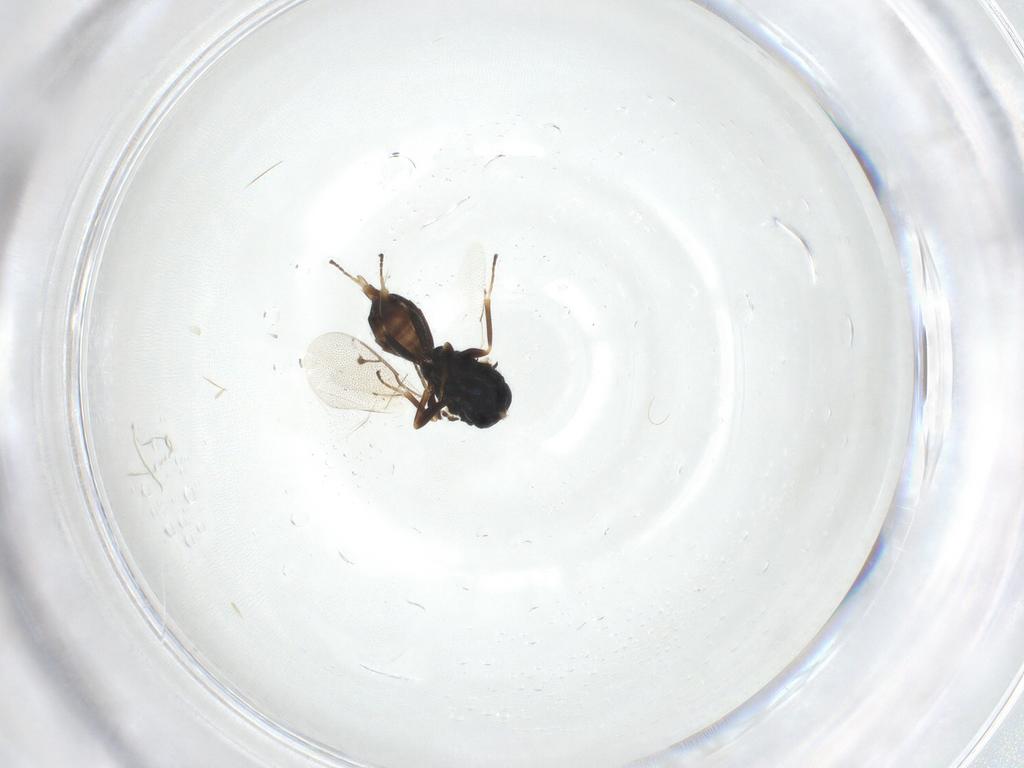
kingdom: Animalia
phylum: Arthropoda
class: Insecta
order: Hymenoptera
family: Pteromalidae
